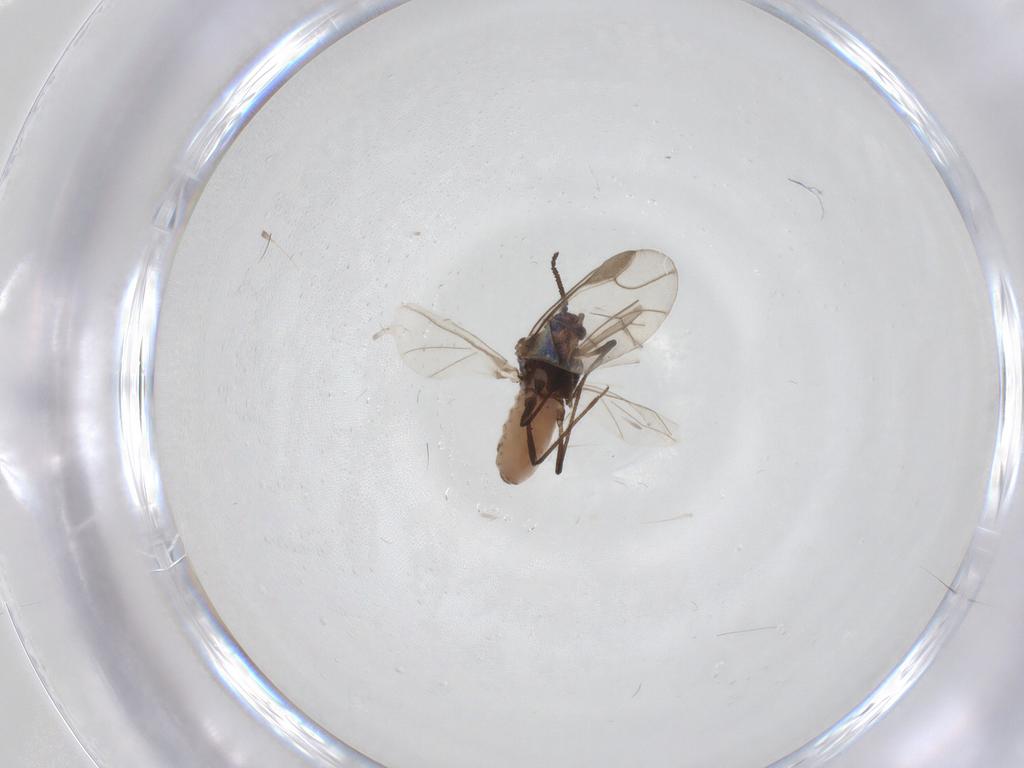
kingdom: Animalia
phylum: Arthropoda
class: Insecta
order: Hemiptera
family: Aphididae
